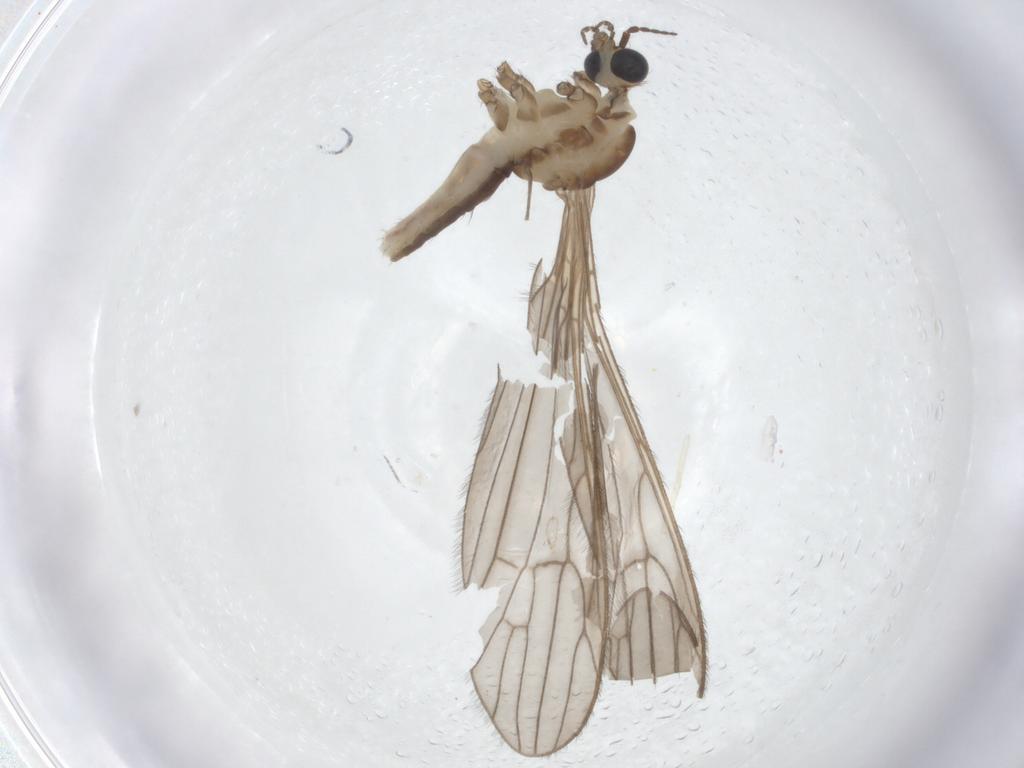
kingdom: Animalia
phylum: Arthropoda
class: Insecta
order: Diptera
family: Limoniidae
